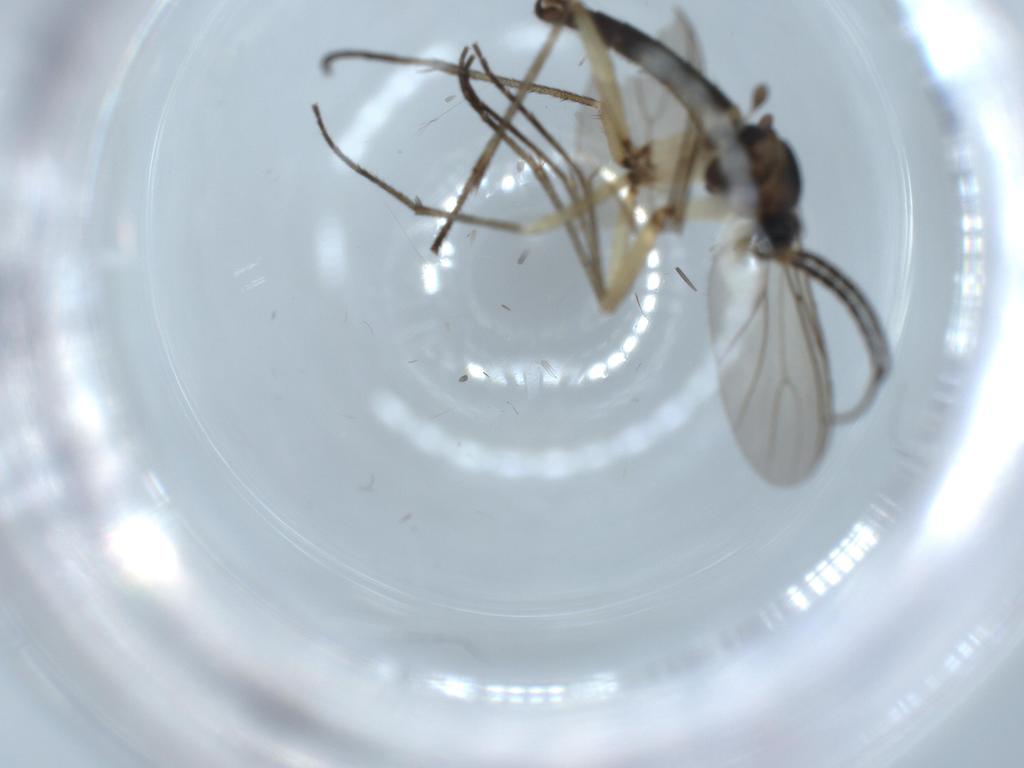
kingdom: Animalia
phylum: Arthropoda
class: Insecta
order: Diptera
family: Sciaridae
